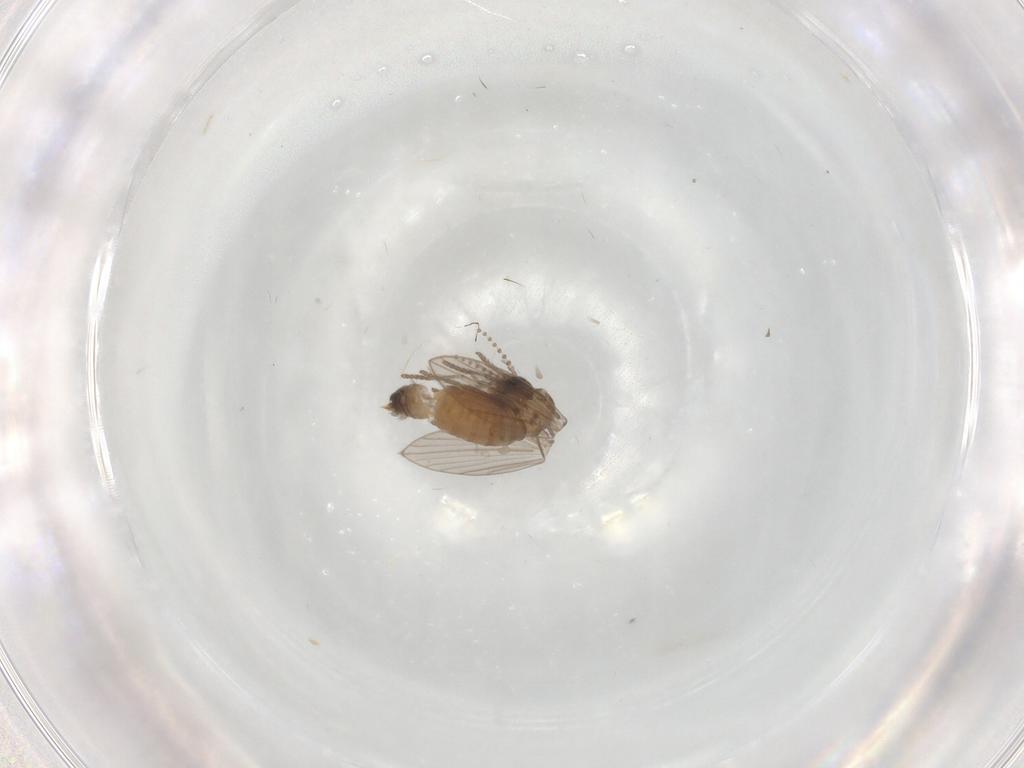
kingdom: Animalia
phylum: Arthropoda
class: Insecta
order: Diptera
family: Psychodidae
